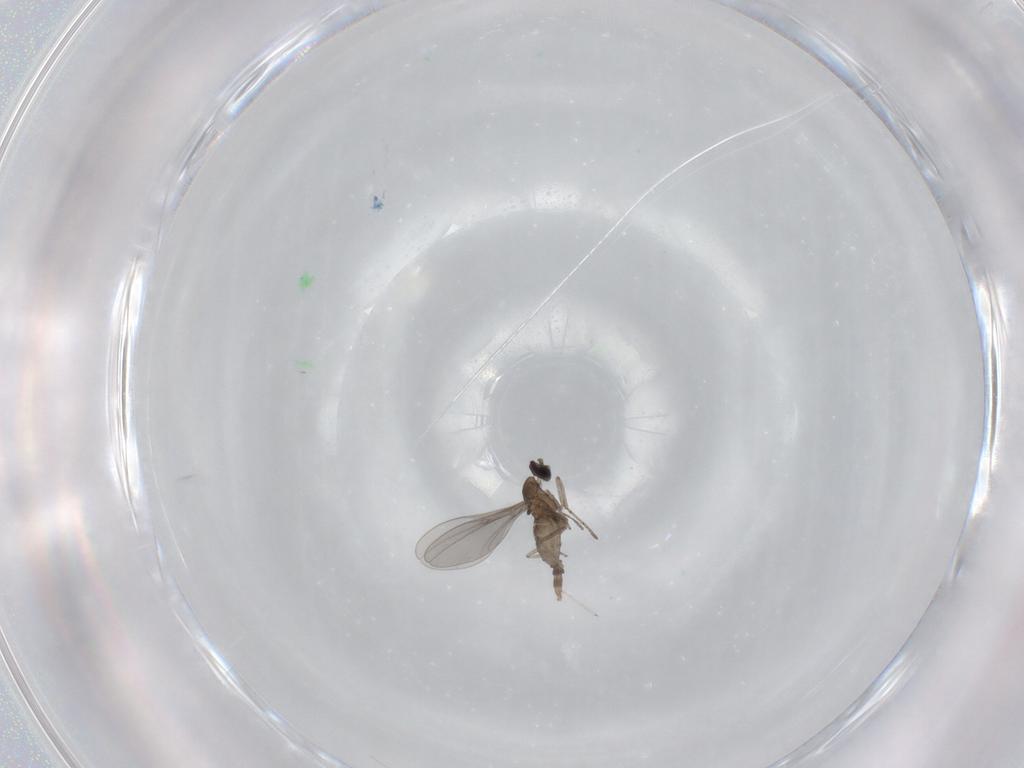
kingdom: Animalia
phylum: Arthropoda
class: Insecta
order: Diptera
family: Cecidomyiidae
